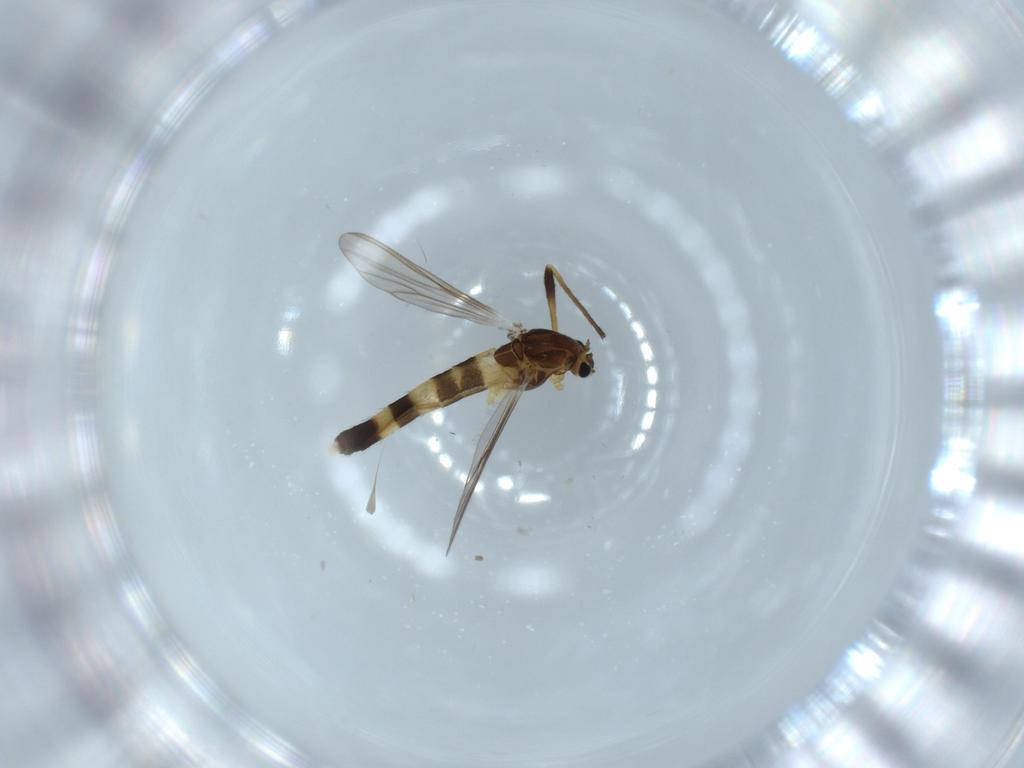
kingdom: Animalia
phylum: Arthropoda
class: Insecta
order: Diptera
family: Chironomidae
